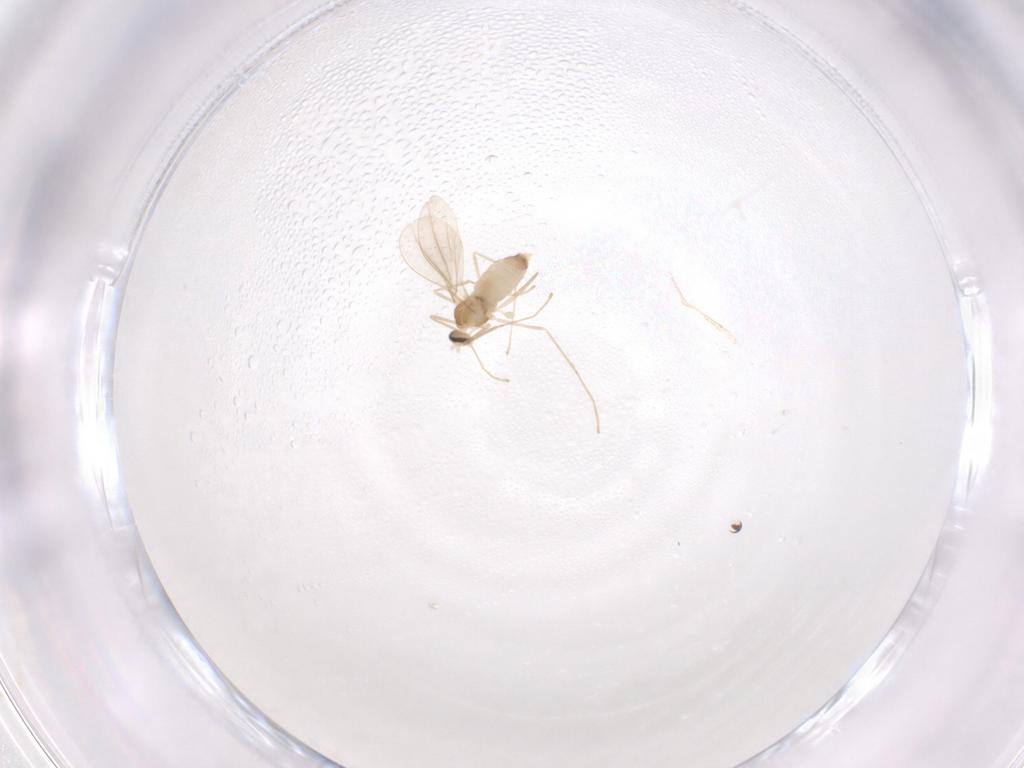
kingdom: Animalia
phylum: Arthropoda
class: Insecta
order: Diptera
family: Cecidomyiidae
